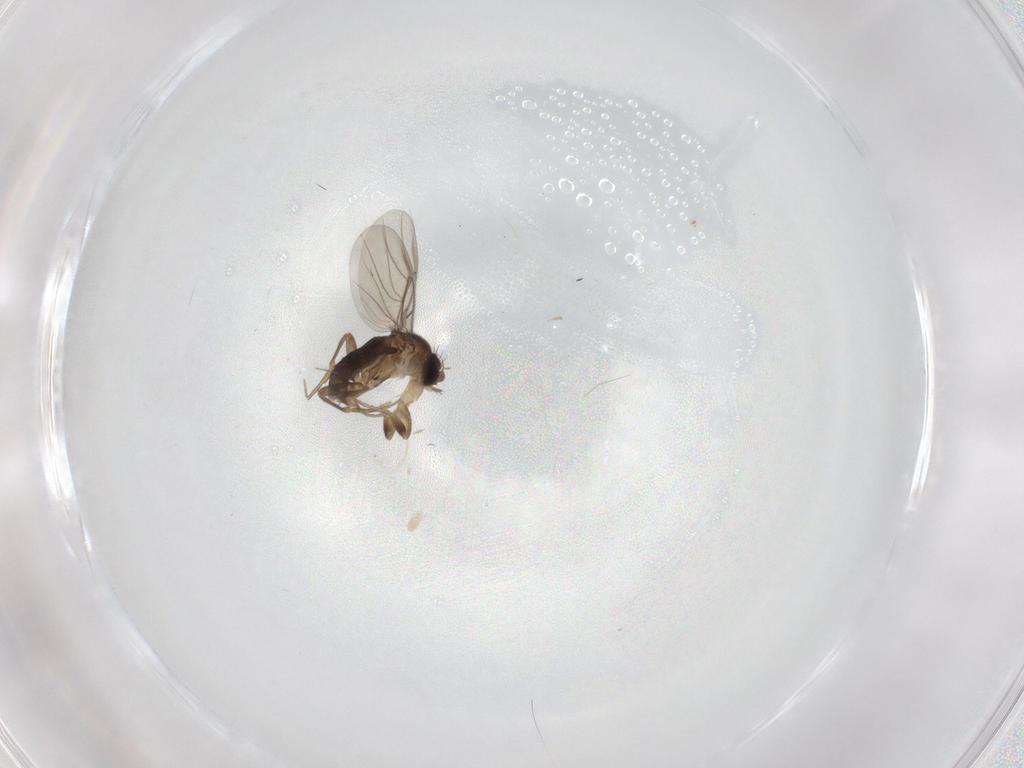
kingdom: Animalia
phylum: Arthropoda
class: Insecta
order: Diptera
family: Phoridae
